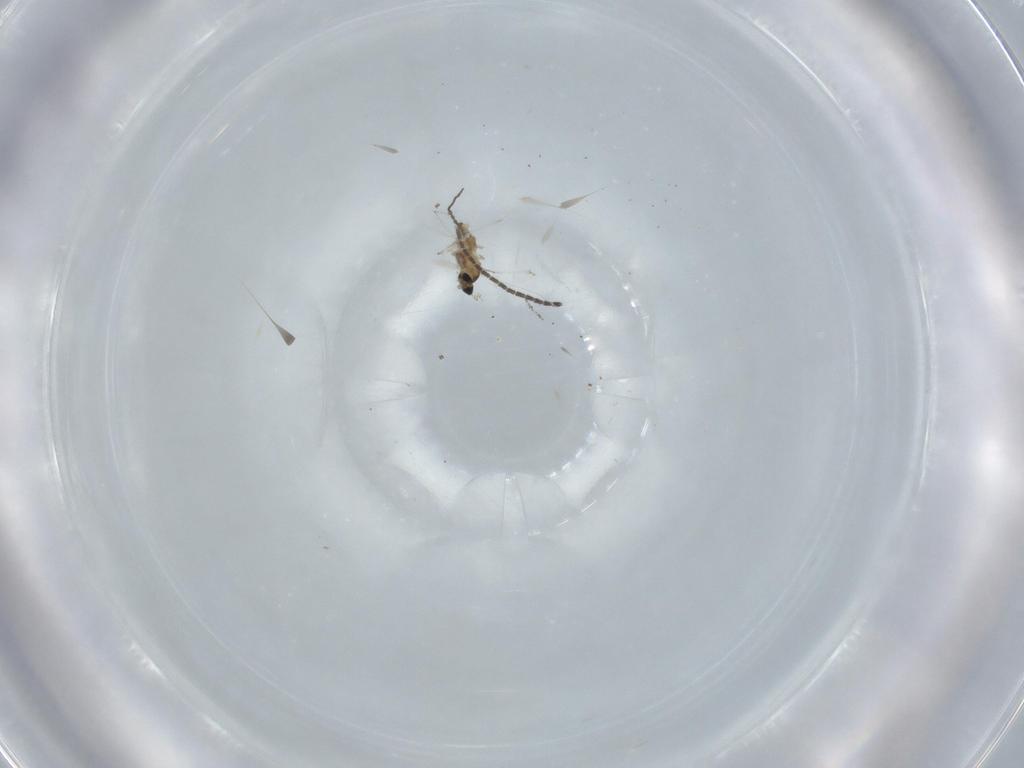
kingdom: Animalia
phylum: Arthropoda
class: Insecta
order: Diptera
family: Cecidomyiidae
